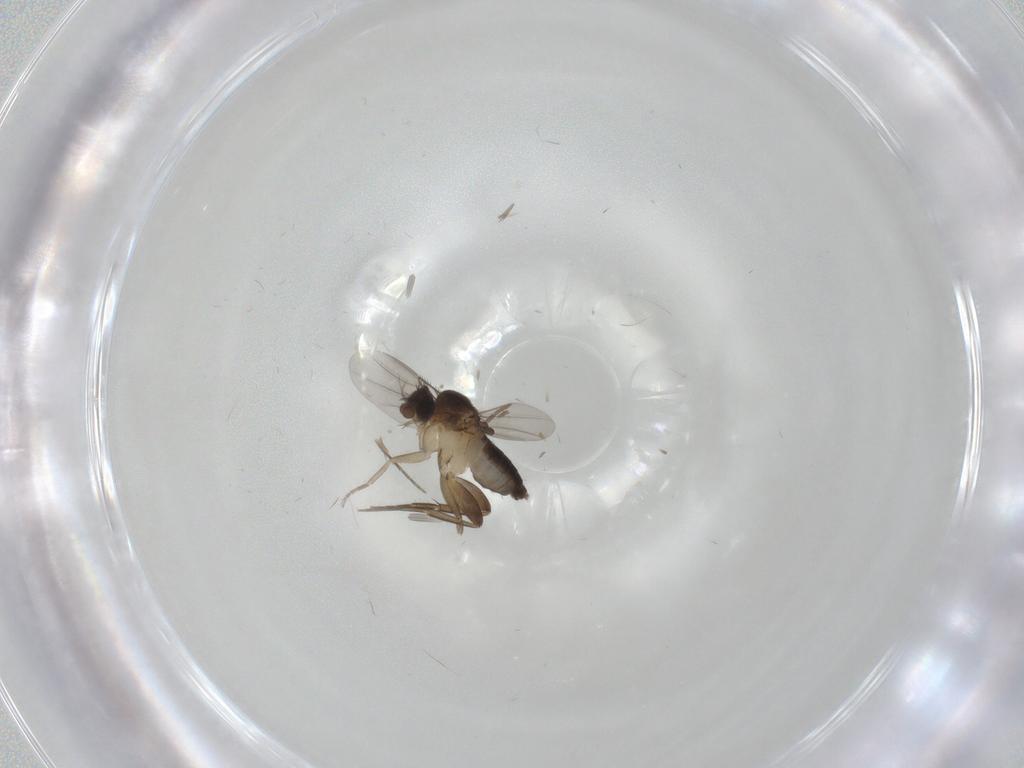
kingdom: Animalia
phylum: Arthropoda
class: Insecta
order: Diptera
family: Phoridae
